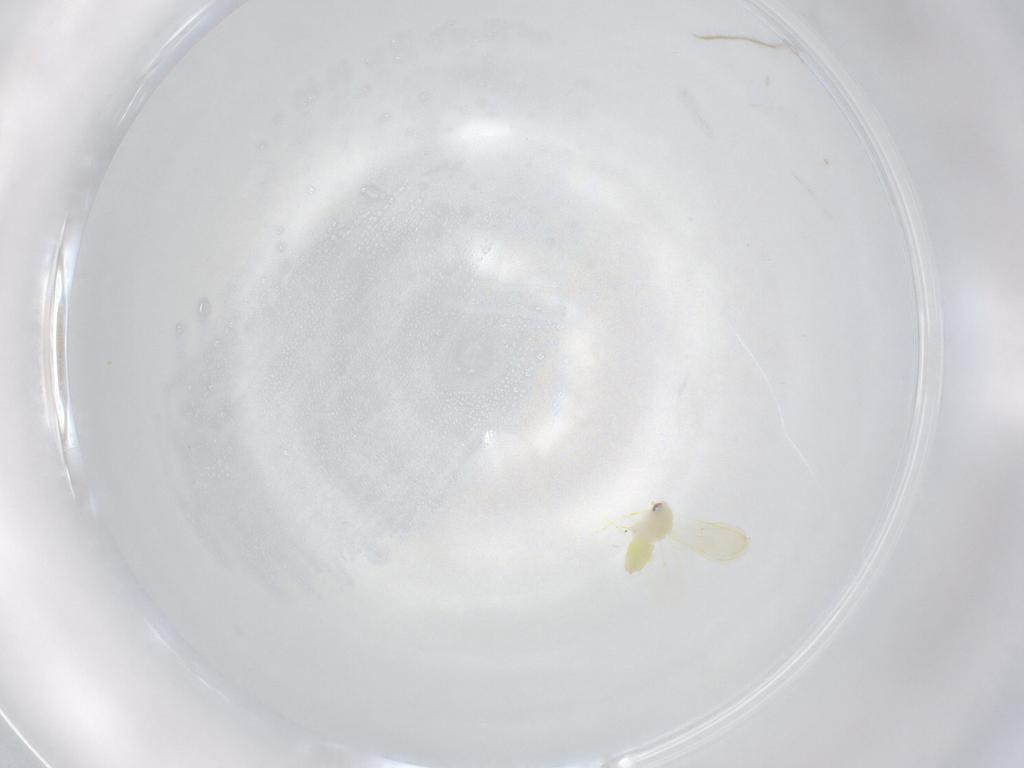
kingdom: Animalia
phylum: Arthropoda
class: Insecta
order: Hemiptera
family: Aleyrodidae
